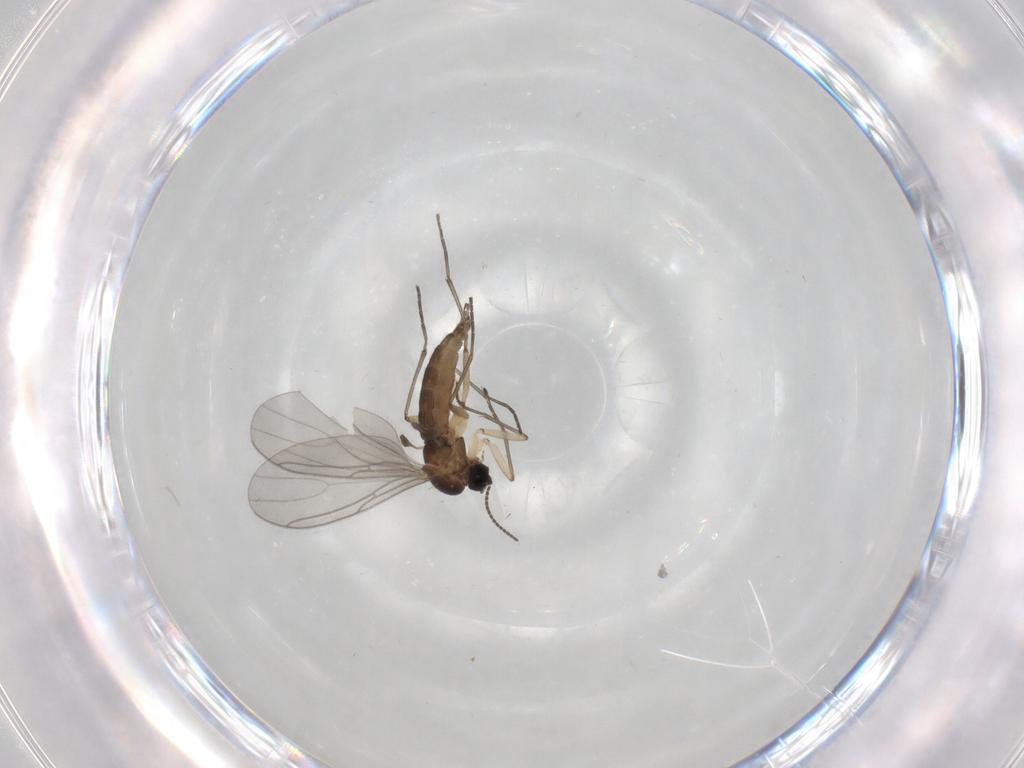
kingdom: Animalia
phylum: Arthropoda
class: Insecta
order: Diptera
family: Sciaridae
